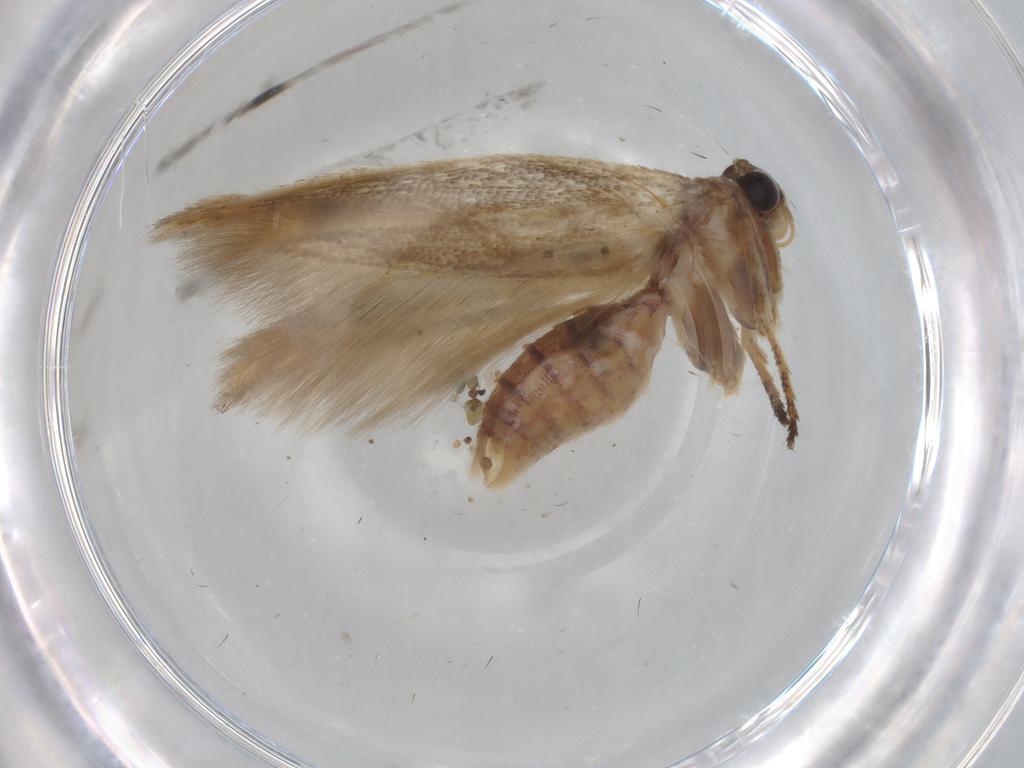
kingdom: Animalia
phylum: Arthropoda
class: Insecta
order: Lepidoptera
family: Scythrididae
